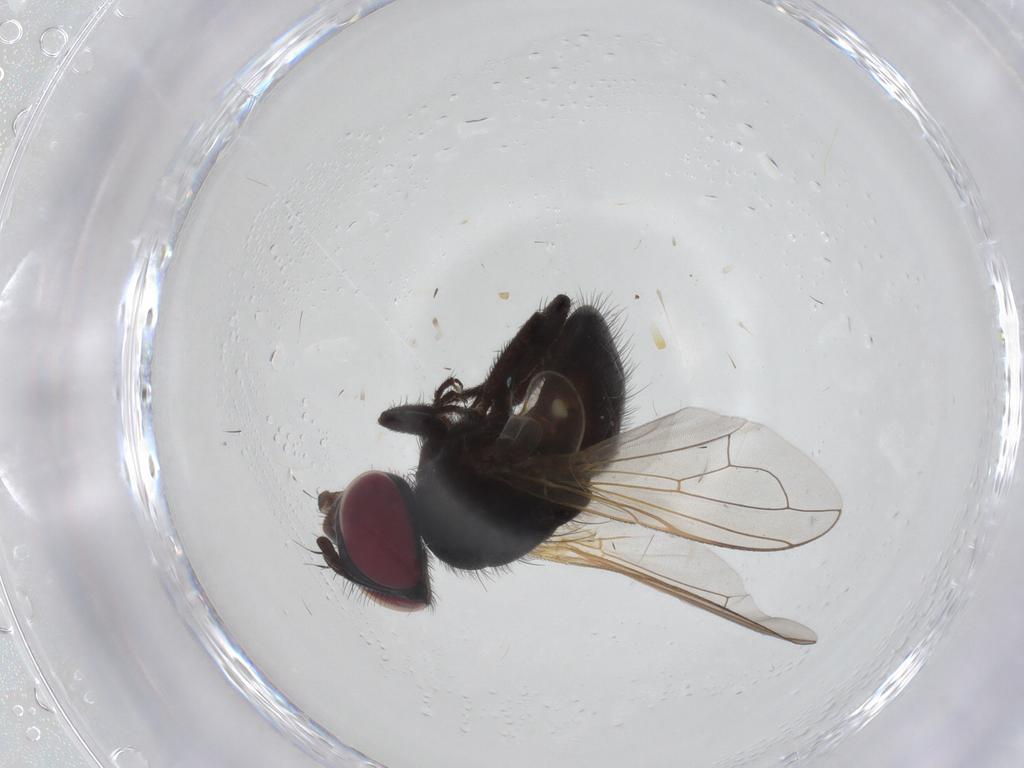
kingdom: Animalia
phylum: Arthropoda
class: Insecta
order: Diptera
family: Tachinidae
